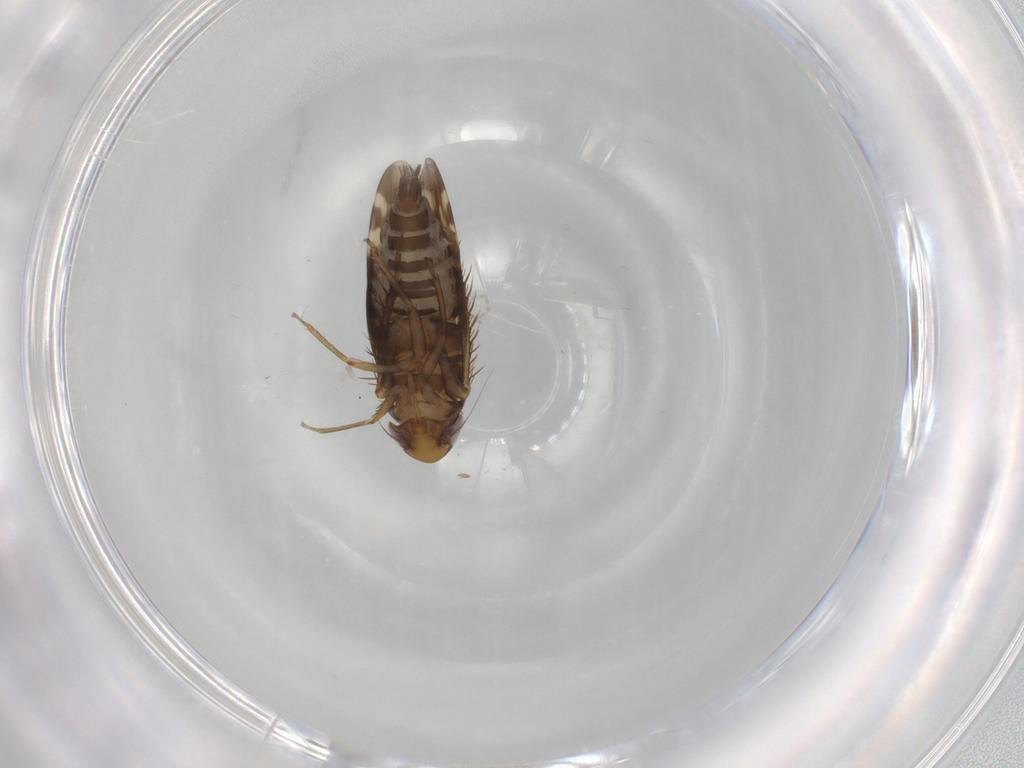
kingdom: Animalia
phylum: Arthropoda
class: Insecta
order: Hemiptera
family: Cicadellidae
